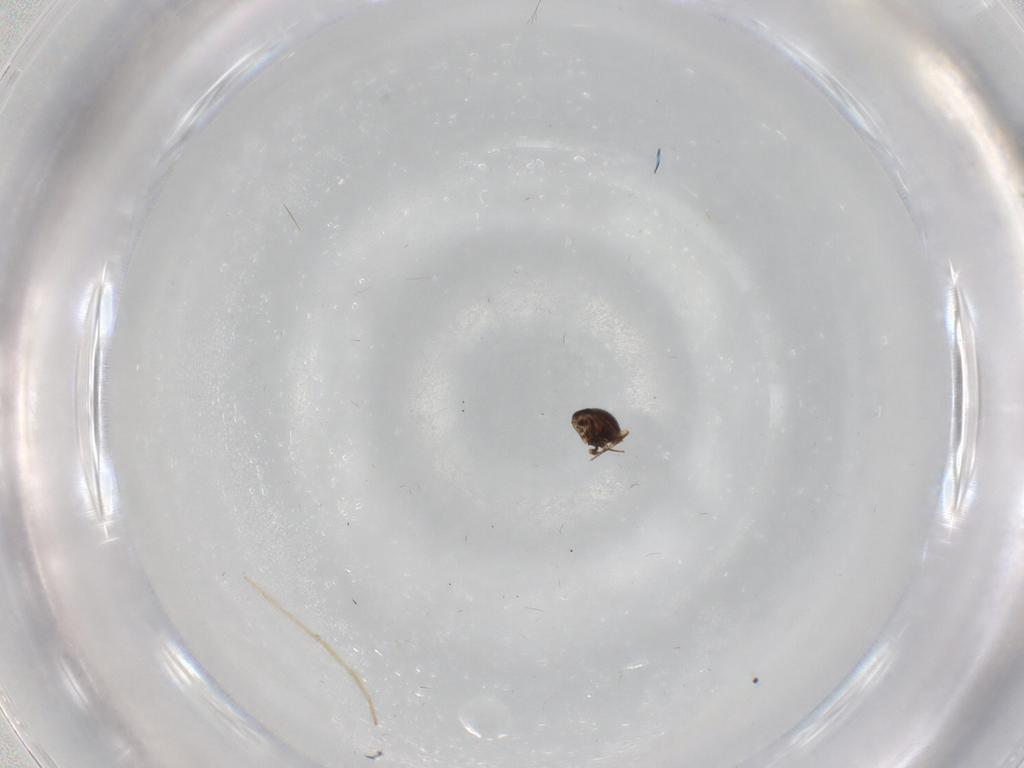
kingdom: Animalia
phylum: Arthropoda
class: Insecta
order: Hymenoptera
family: Scelionidae
